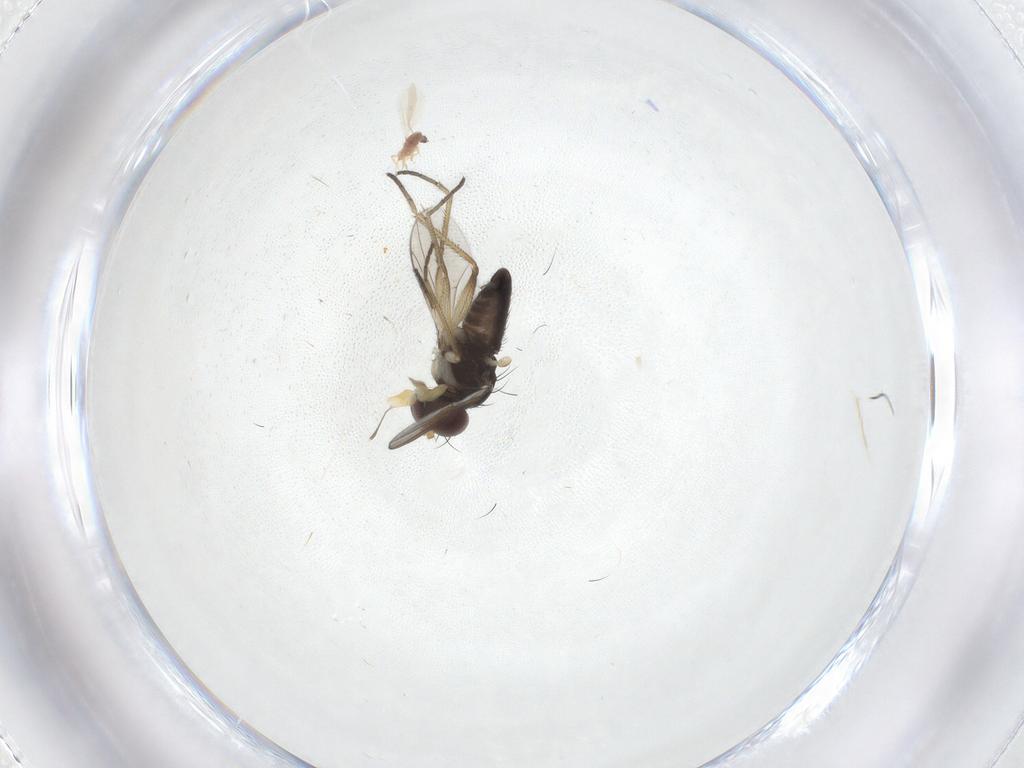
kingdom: Animalia
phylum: Arthropoda
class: Insecta
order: Diptera
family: Dolichopodidae
